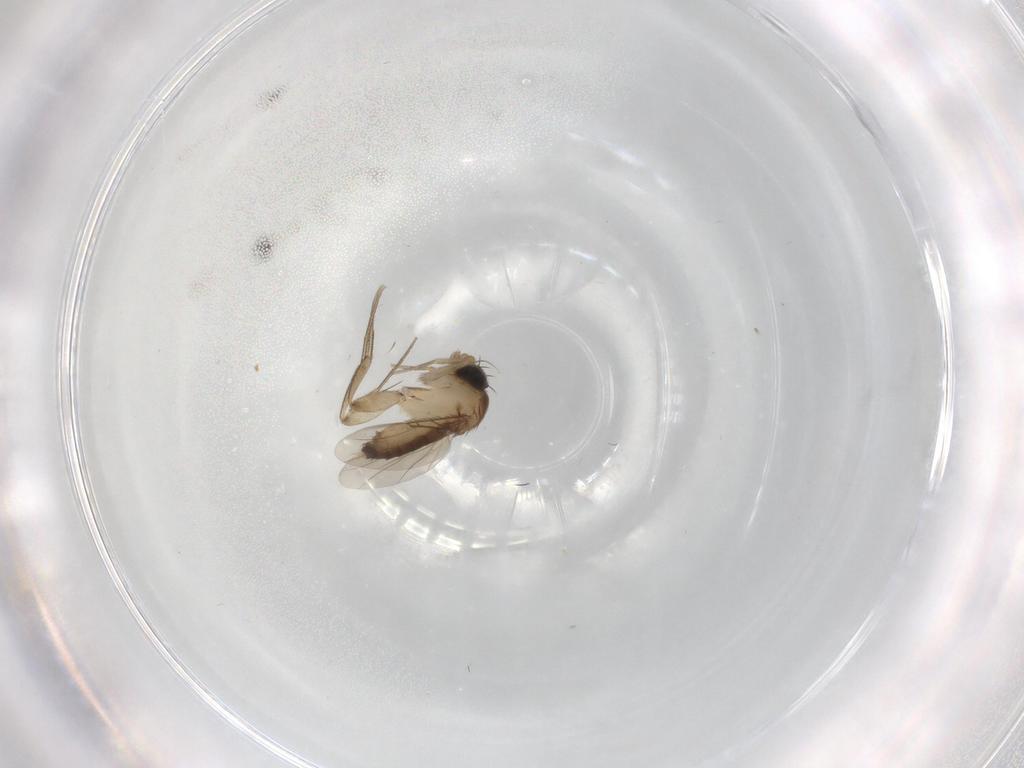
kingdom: Animalia
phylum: Arthropoda
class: Insecta
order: Diptera
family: Phoridae
